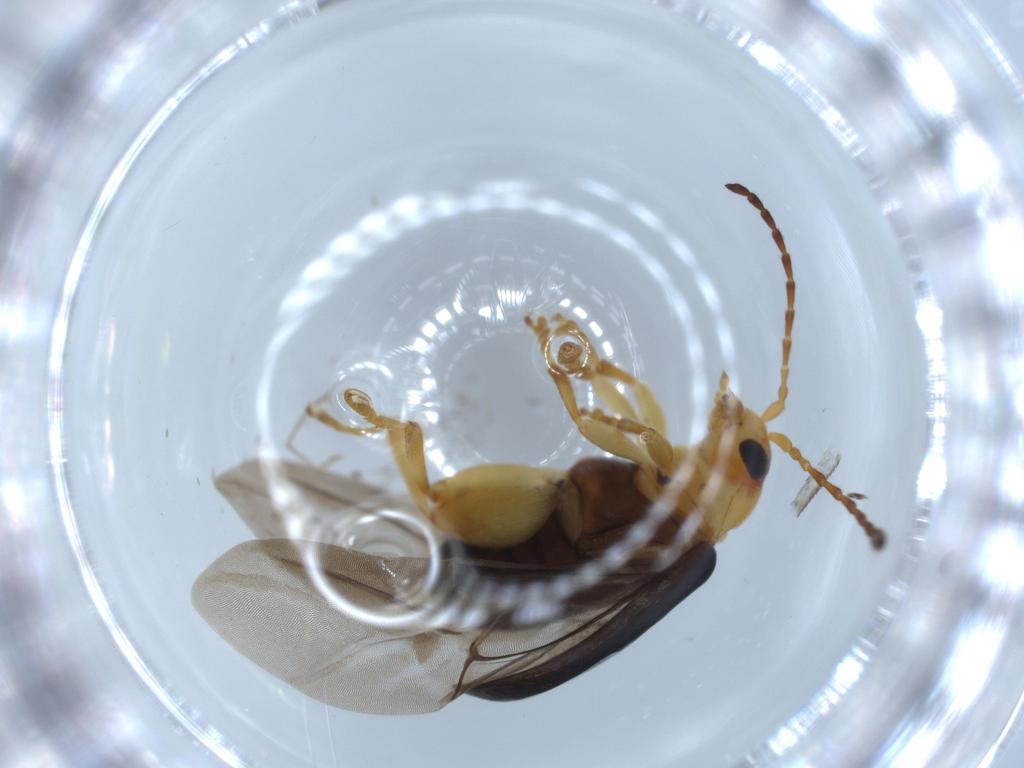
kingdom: Animalia
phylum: Arthropoda
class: Insecta
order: Coleoptera
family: Chrysomelidae
